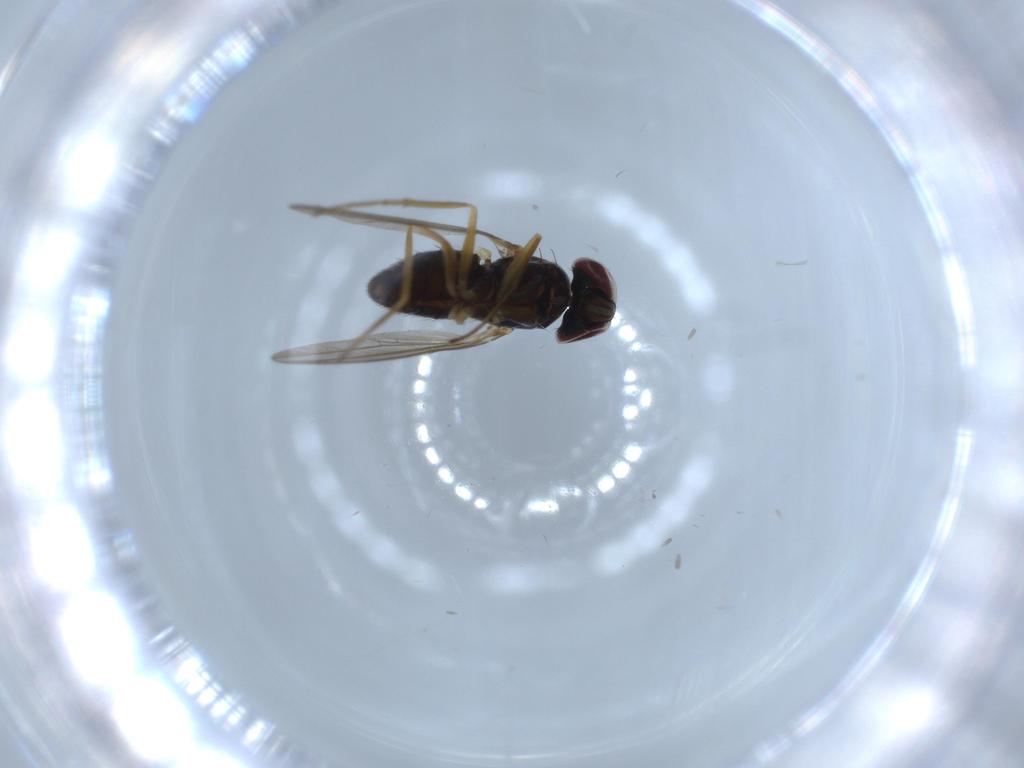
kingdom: Animalia
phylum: Arthropoda
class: Insecta
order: Diptera
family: Dolichopodidae
